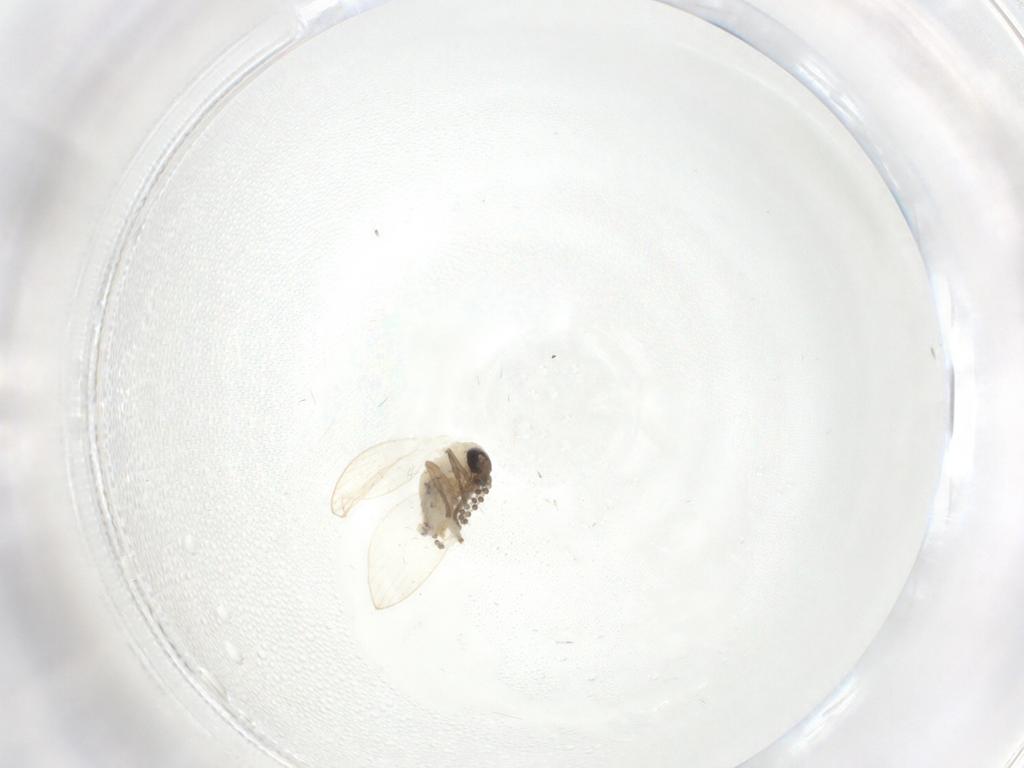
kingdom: Animalia
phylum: Arthropoda
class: Insecta
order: Diptera
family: Psychodidae
